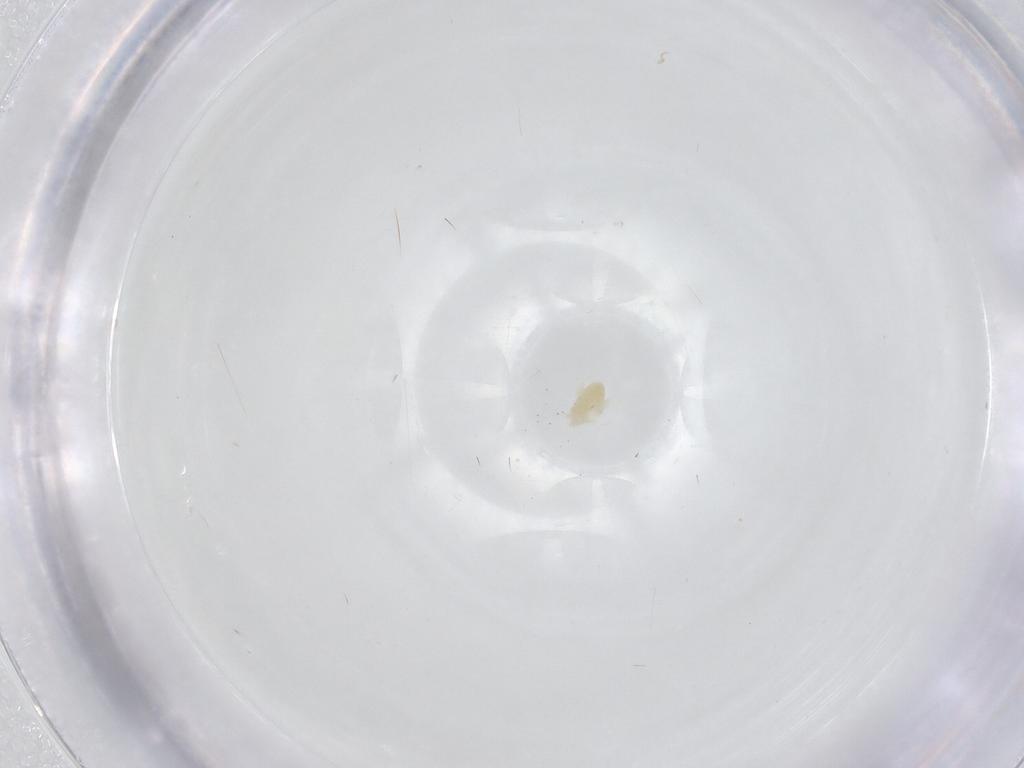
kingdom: Animalia
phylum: Arthropoda
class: Arachnida
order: Trombidiformes
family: Eupodidae
